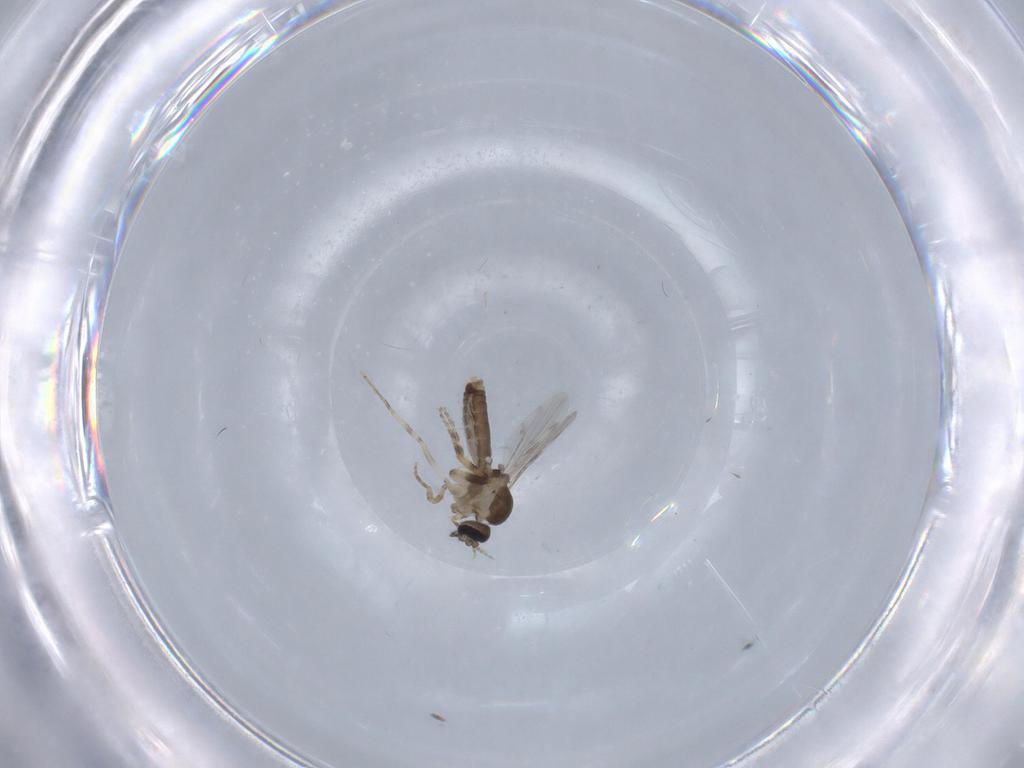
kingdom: Animalia
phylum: Arthropoda
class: Insecta
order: Diptera
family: Ceratopogonidae
